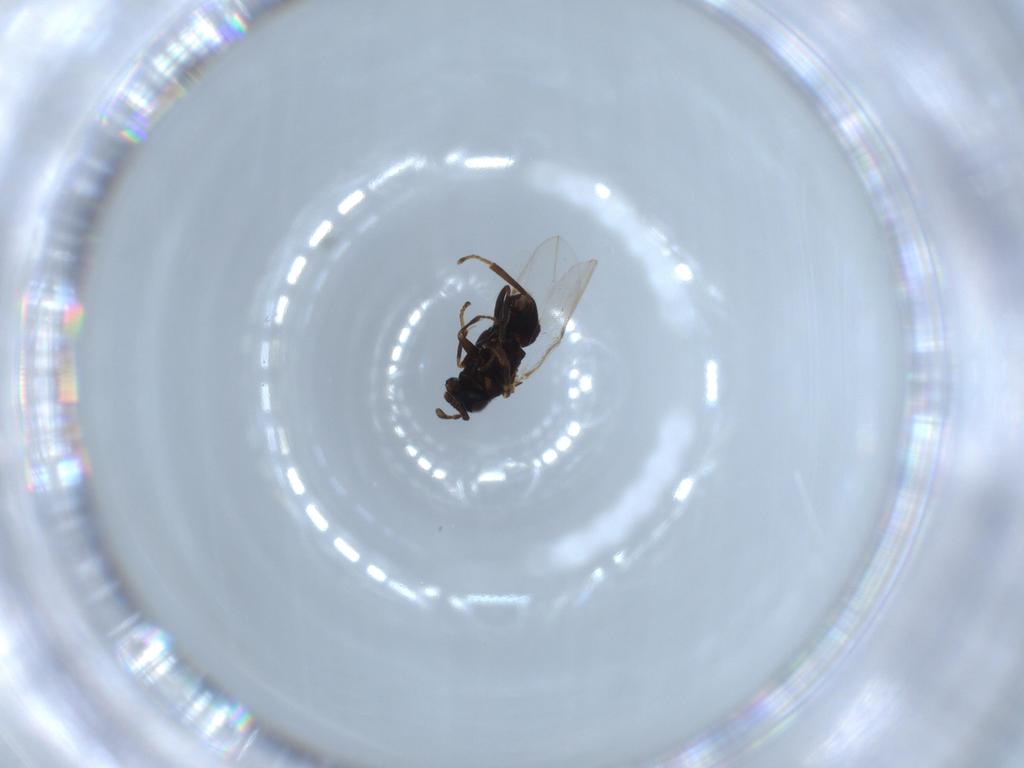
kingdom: Animalia
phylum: Arthropoda
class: Insecta
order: Hymenoptera
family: Encyrtidae
